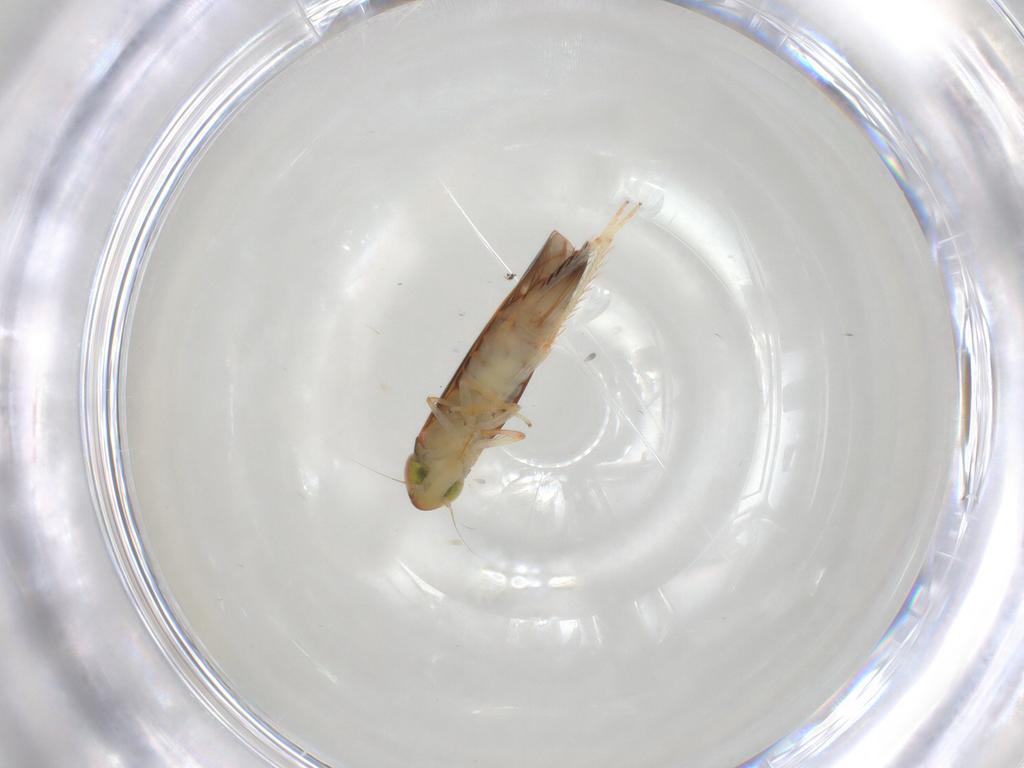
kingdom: Animalia
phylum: Arthropoda
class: Insecta
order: Hemiptera
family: Cicadellidae
